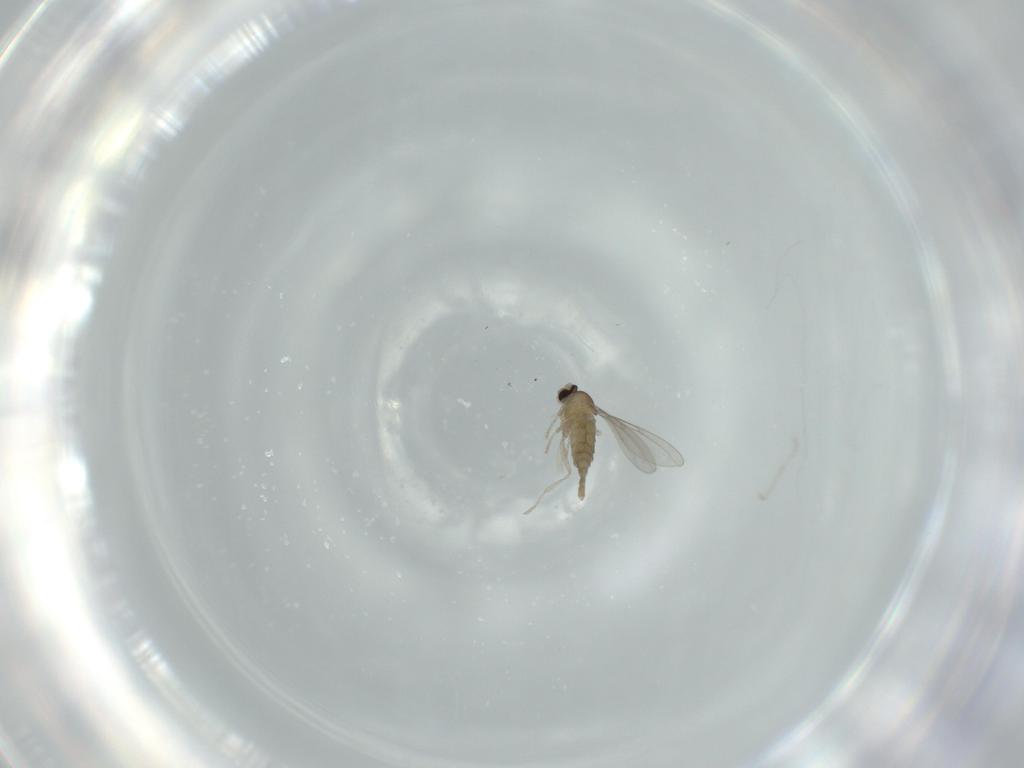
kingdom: Animalia
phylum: Arthropoda
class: Insecta
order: Diptera
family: Cecidomyiidae
